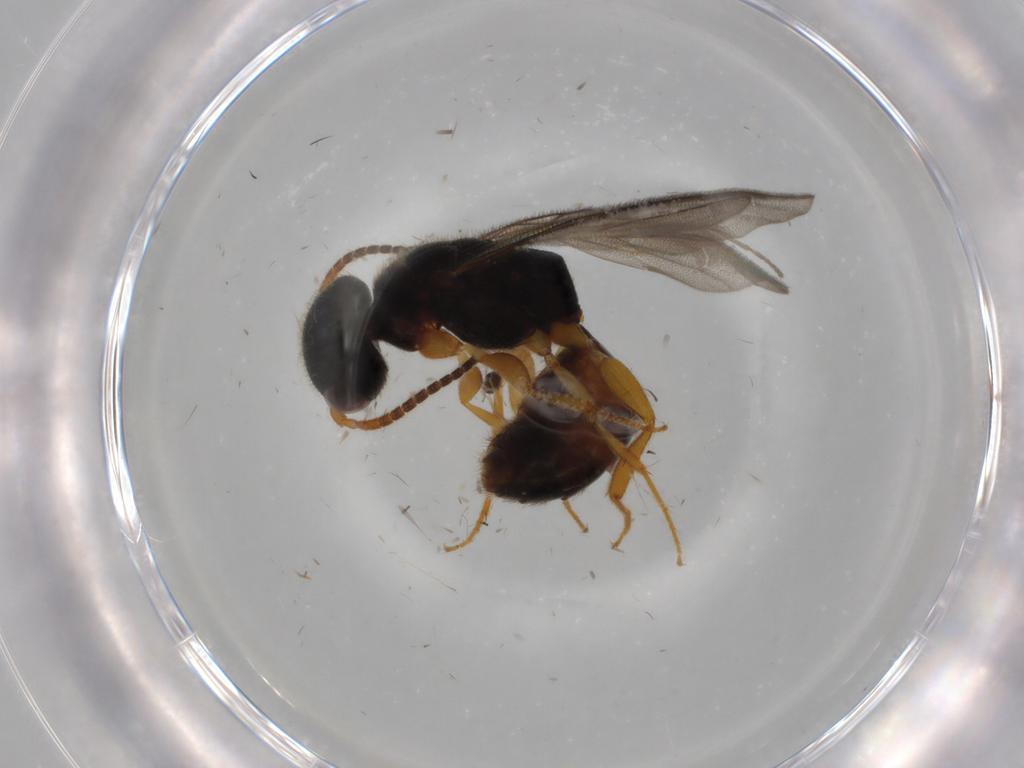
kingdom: Animalia
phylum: Arthropoda
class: Insecta
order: Hymenoptera
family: Bethylidae
